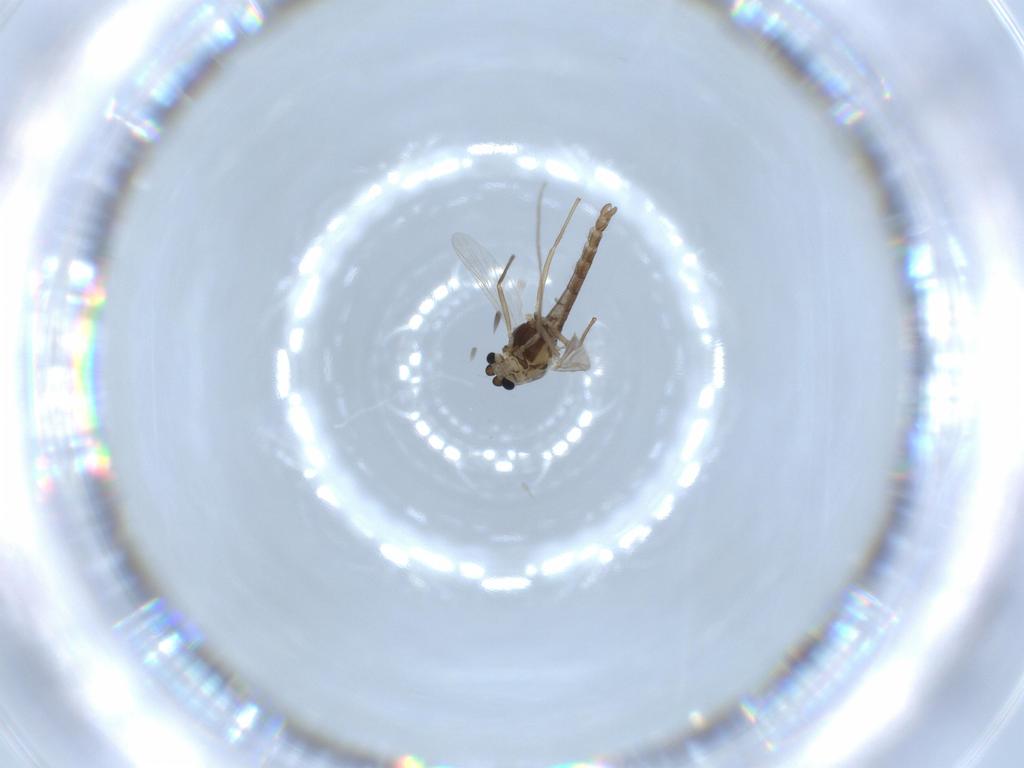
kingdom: Animalia
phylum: Arthropoda
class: Insecta
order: Diptera
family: Chironomidae
